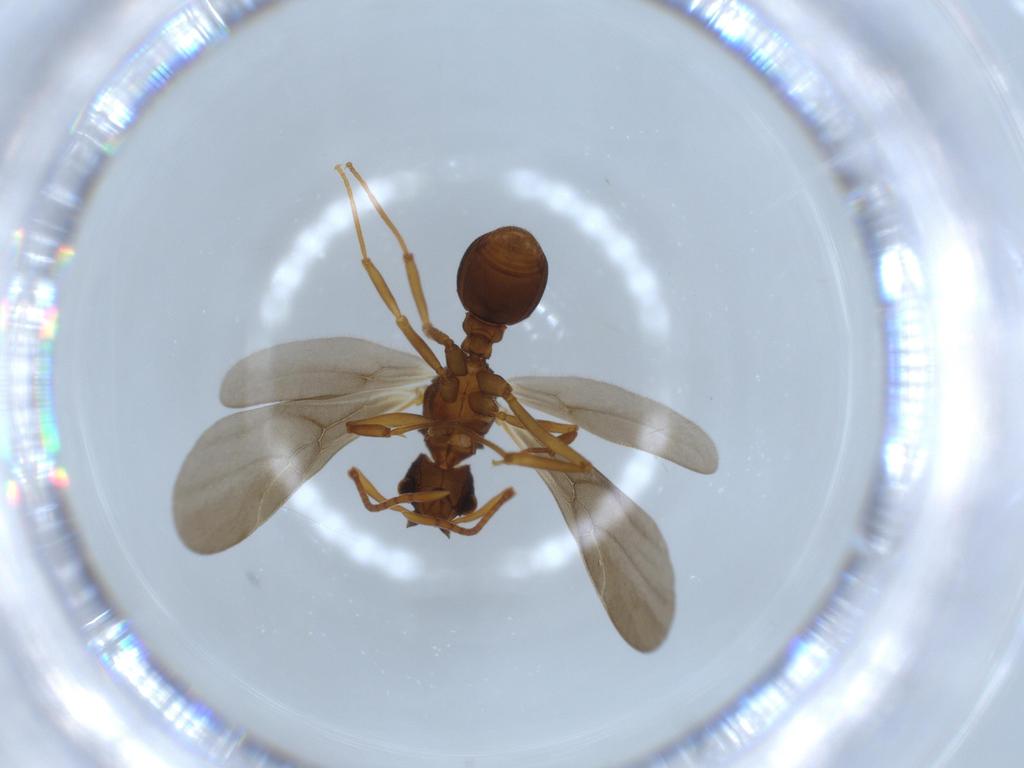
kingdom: Animalia
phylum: Arthropoda
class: Insecta
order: Hymenoptera
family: Formicidae
